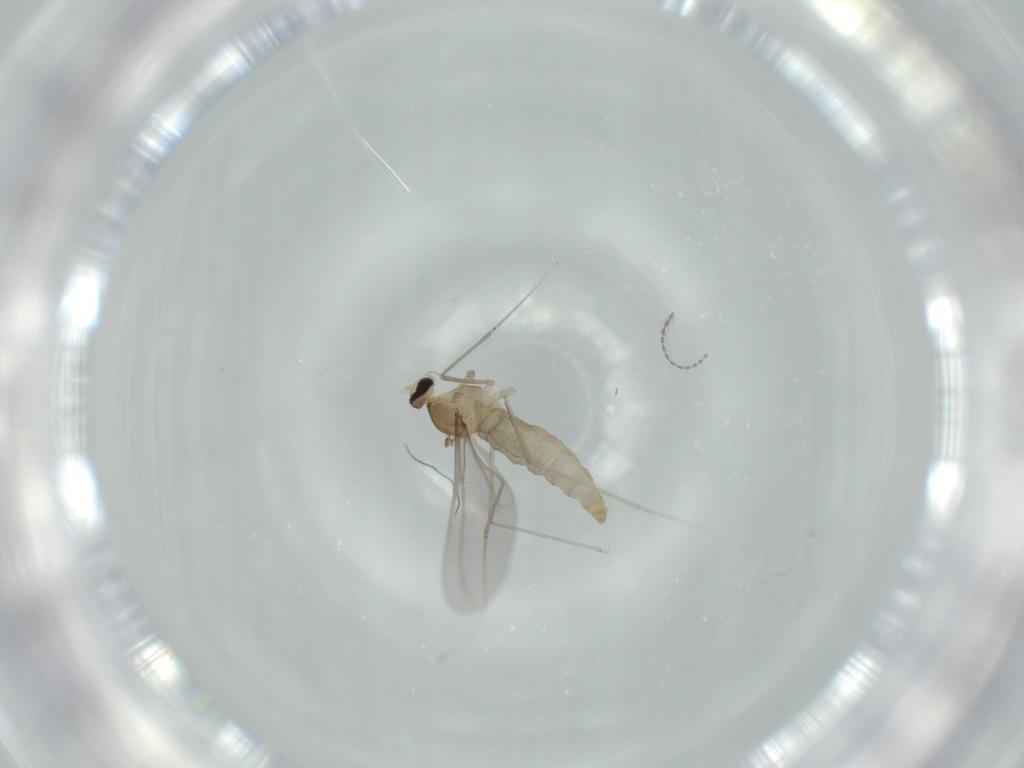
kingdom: Animalia
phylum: Arthropoda
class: Insecta
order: Diptera
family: Cecidomyiidae
